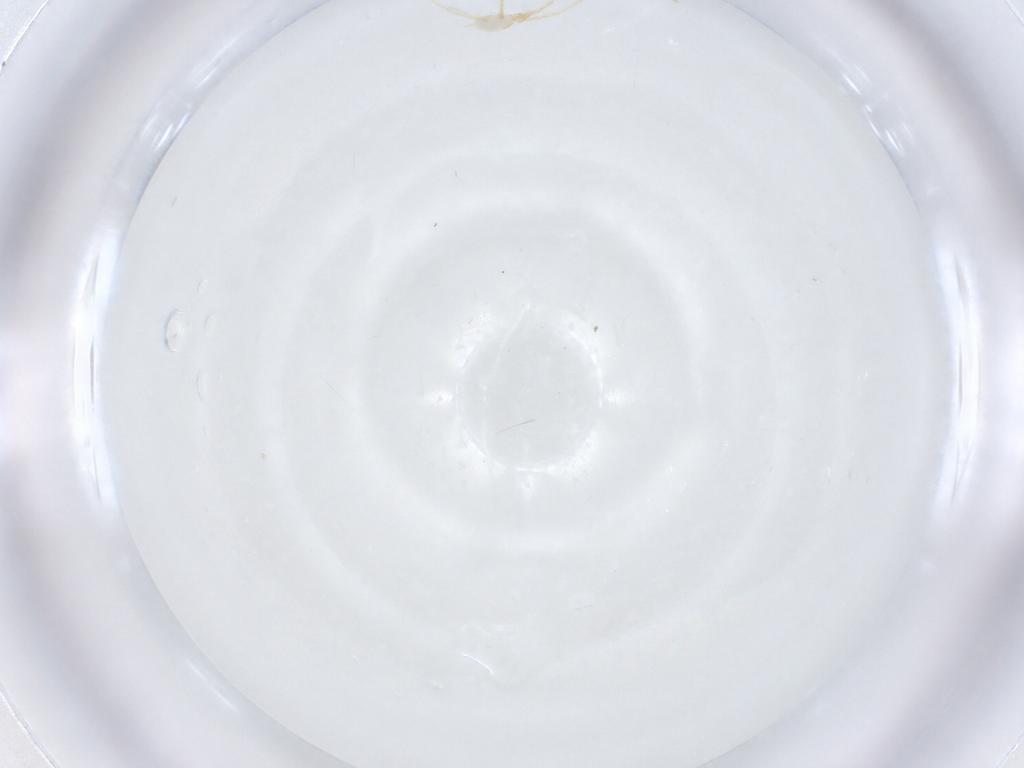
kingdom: Animalia
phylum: Arthropoda
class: Arachnida
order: Trombidiformes
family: Erythraeidae
